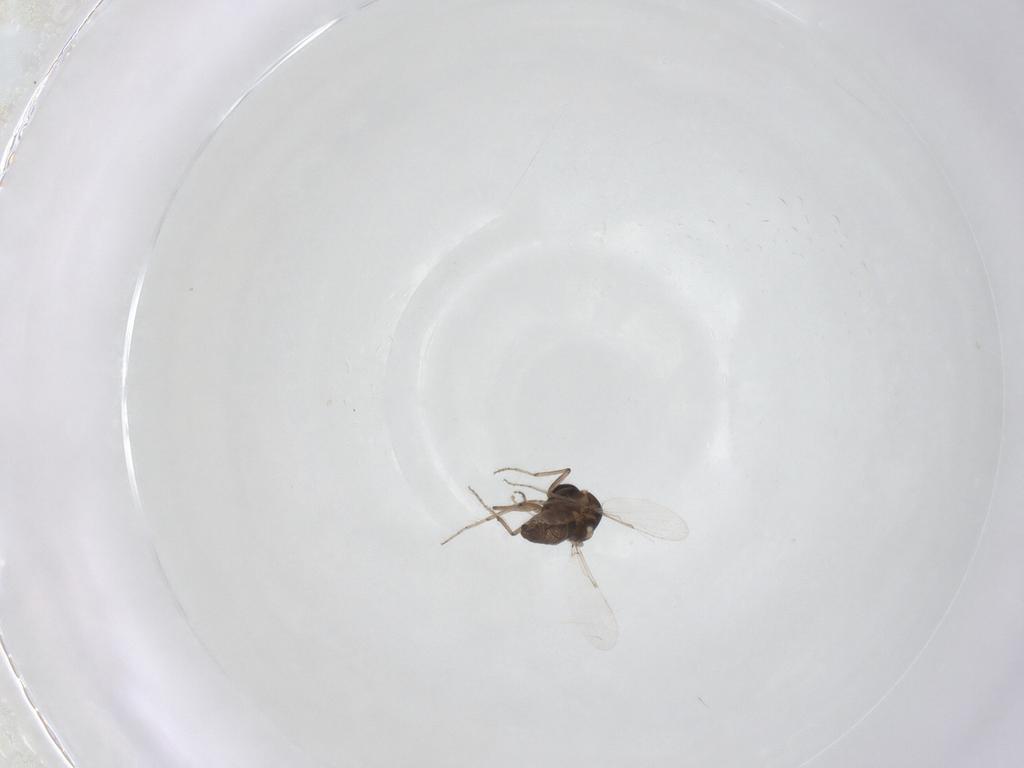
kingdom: Animalia
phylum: Arthropoda
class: Insecta
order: Diptera
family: Ceratopogonidae
